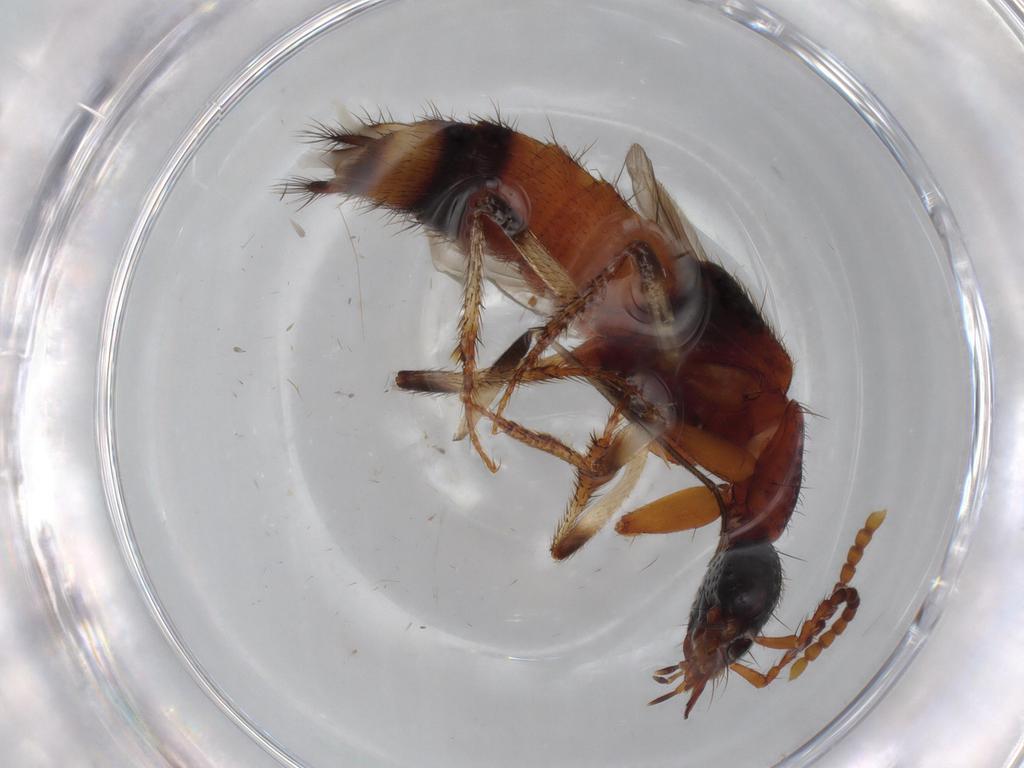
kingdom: Animalia
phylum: Arthropoda
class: Insecta
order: Coleoptera
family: Staphylinidae
